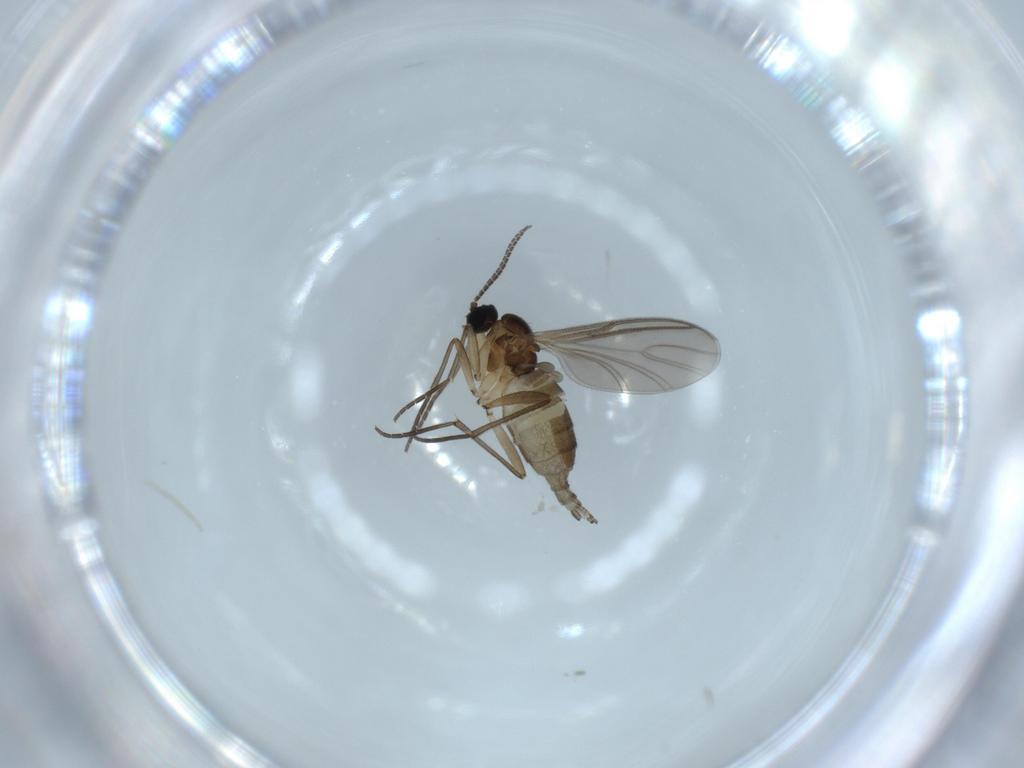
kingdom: Animalia
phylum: Arthropoda
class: Insecta
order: Diptera
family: Sciaridae
